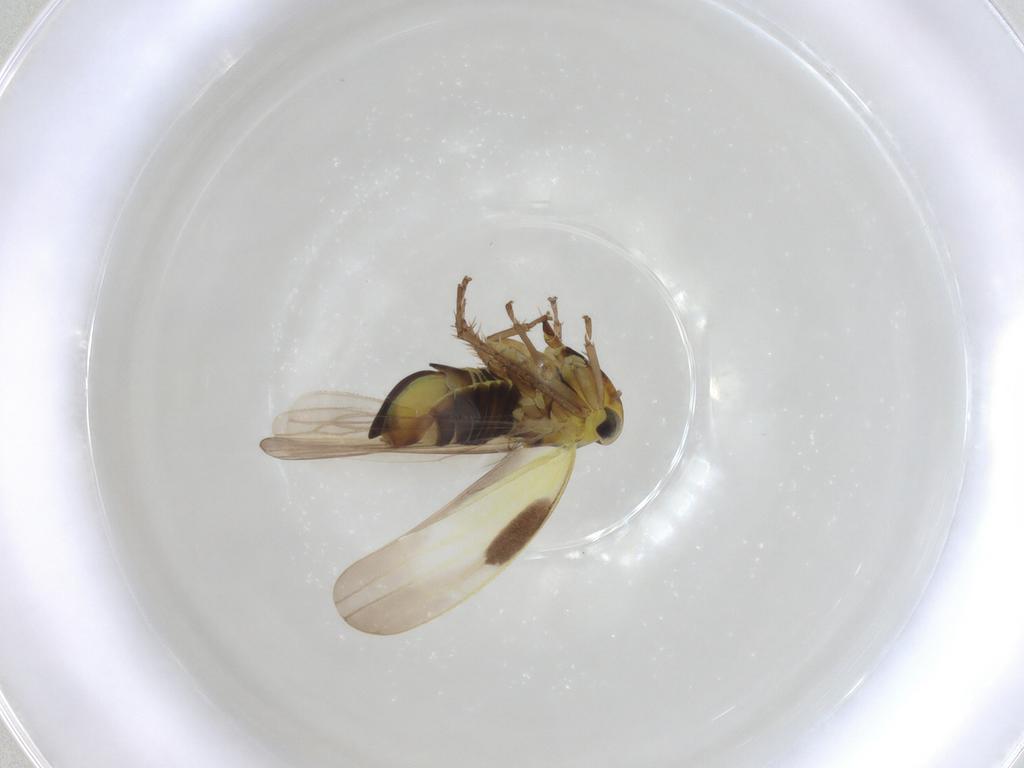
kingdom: Animalia
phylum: Arthropoda
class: Insecta
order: Hemiptera
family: Cicadellidae
